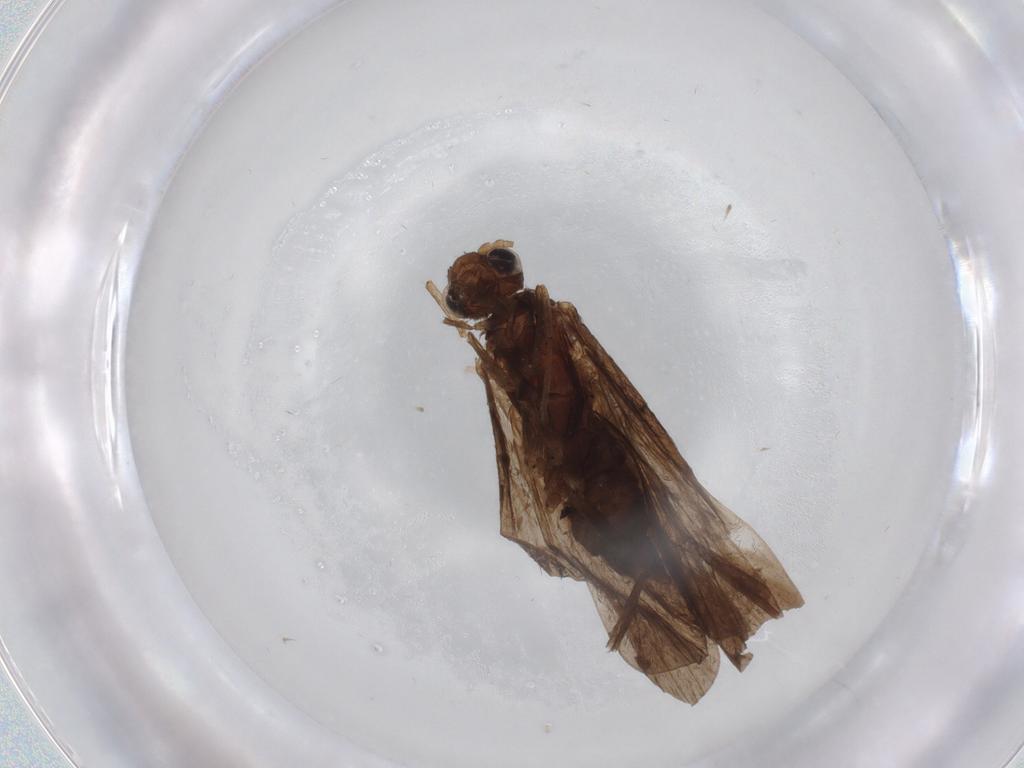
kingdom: Animalia
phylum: Arthropoda
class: Insecta
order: Trichoptera
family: Hydropsychidae
